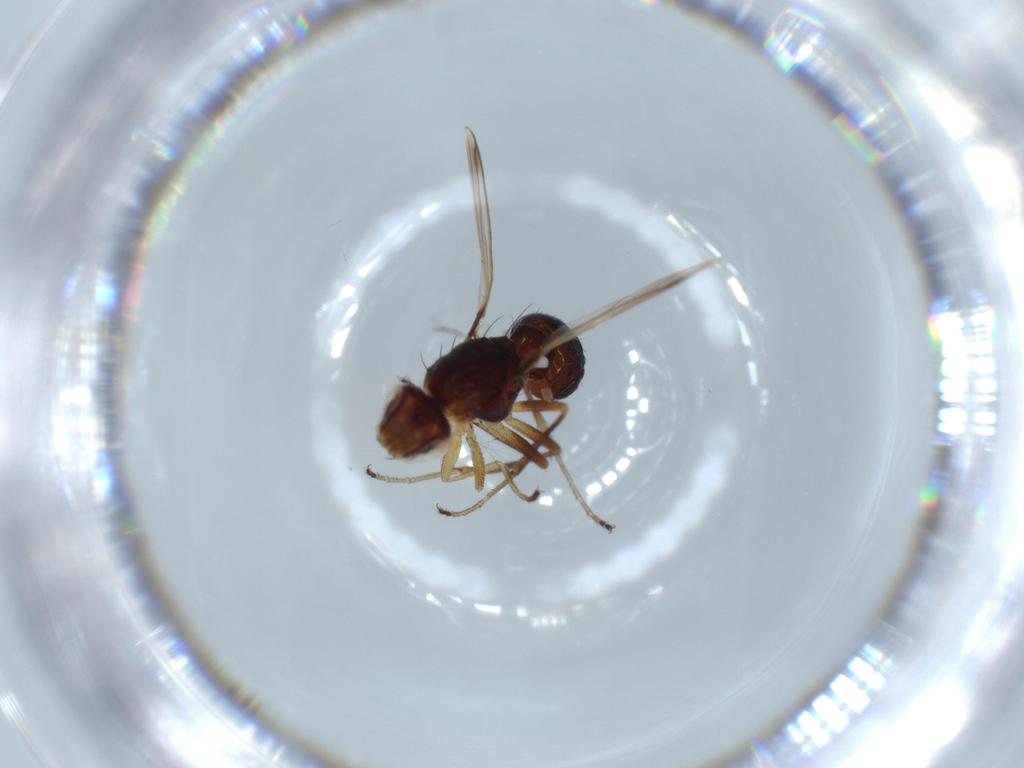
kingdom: Animalia
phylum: Arthropoda
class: Insecta
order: Diptera
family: Sepsidae
